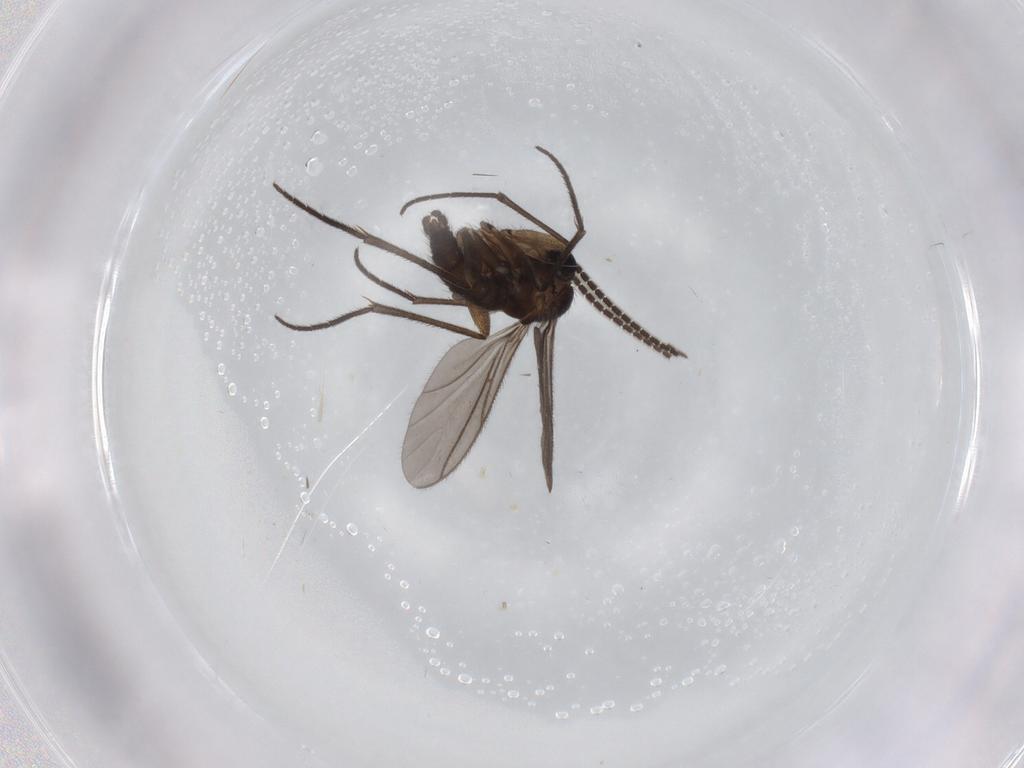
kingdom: Animalia
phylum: Arthropoda
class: Insecta
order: Diptera
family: Sciaridae
